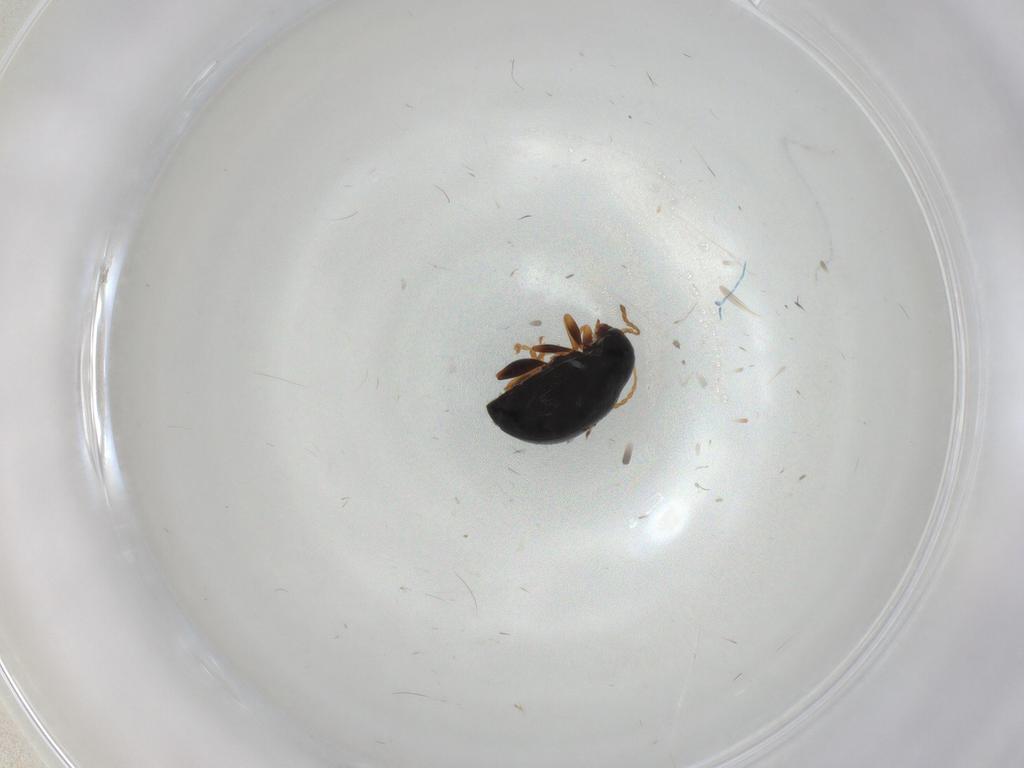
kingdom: Animalia
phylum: Arthropoda
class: Insecta
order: Coleoptera
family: Chrysomelidae
